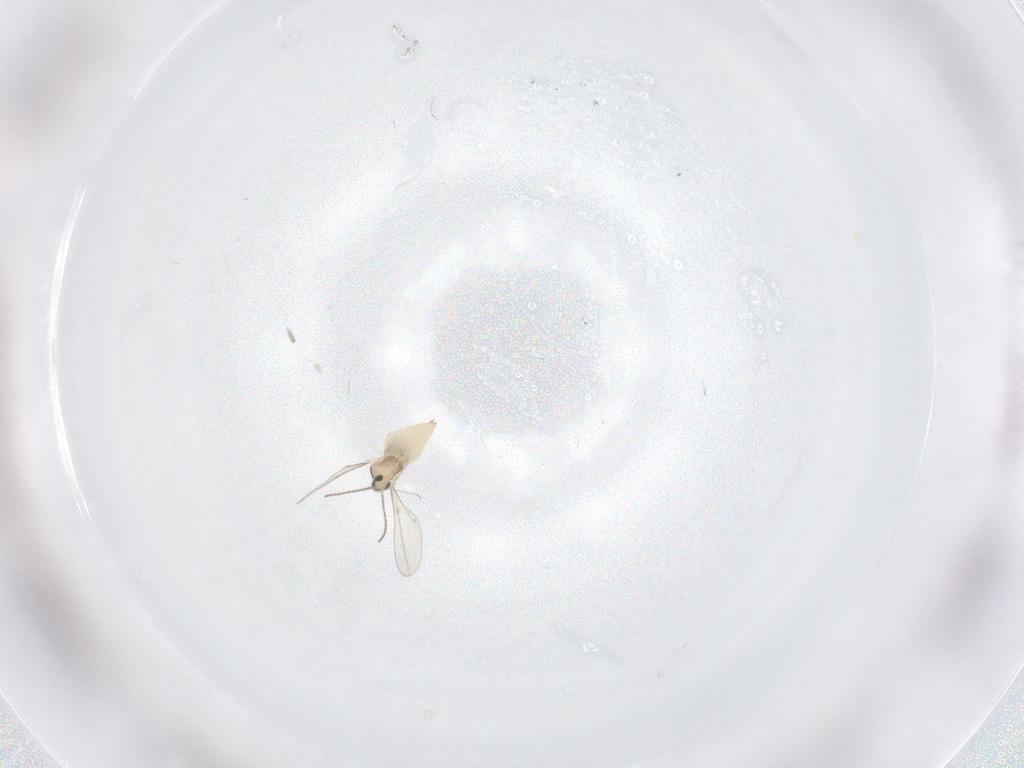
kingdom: Animalia
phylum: Arthropoda
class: Insecta
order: Diptera
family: Cecidomyiidae
